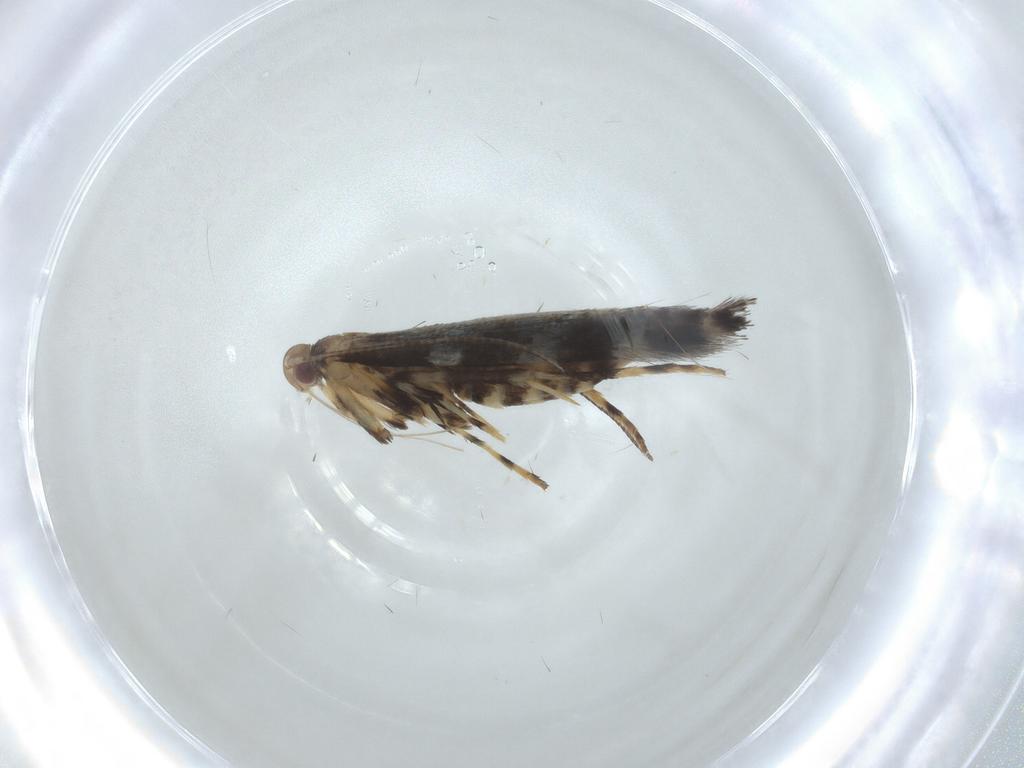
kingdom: Animalia
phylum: Arthropoda
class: Insecta
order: Lepidoptera
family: Gracillariidae
